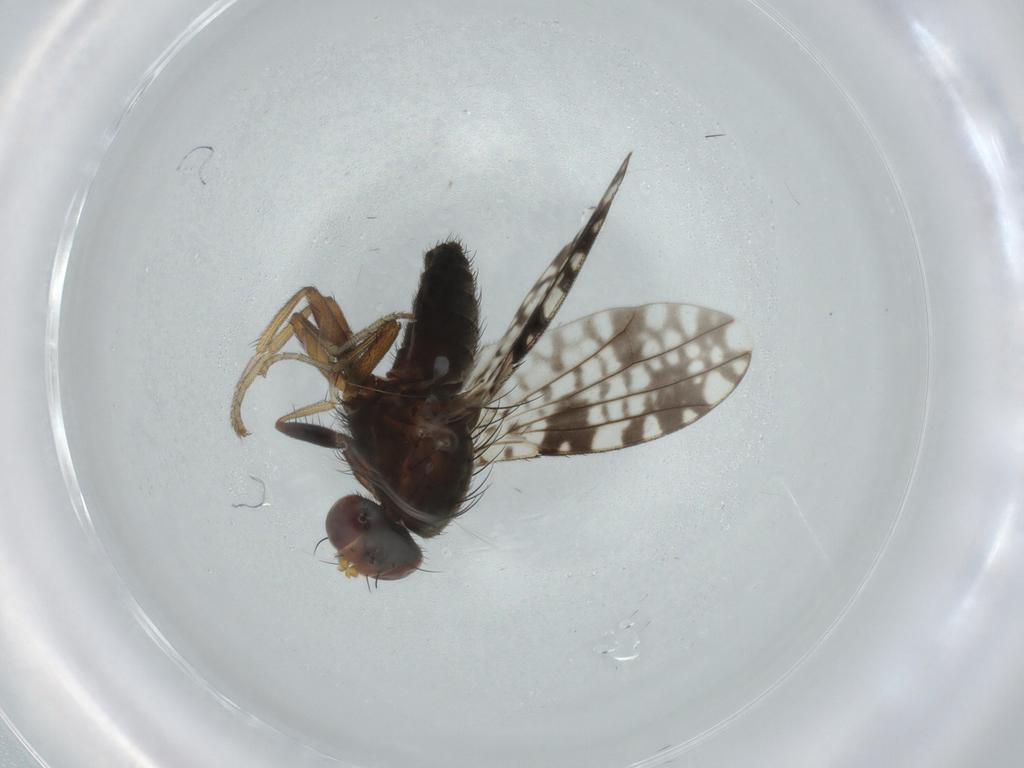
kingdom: Animalia
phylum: Arthropoda
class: Insecta
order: Diptera
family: Tephritidae
